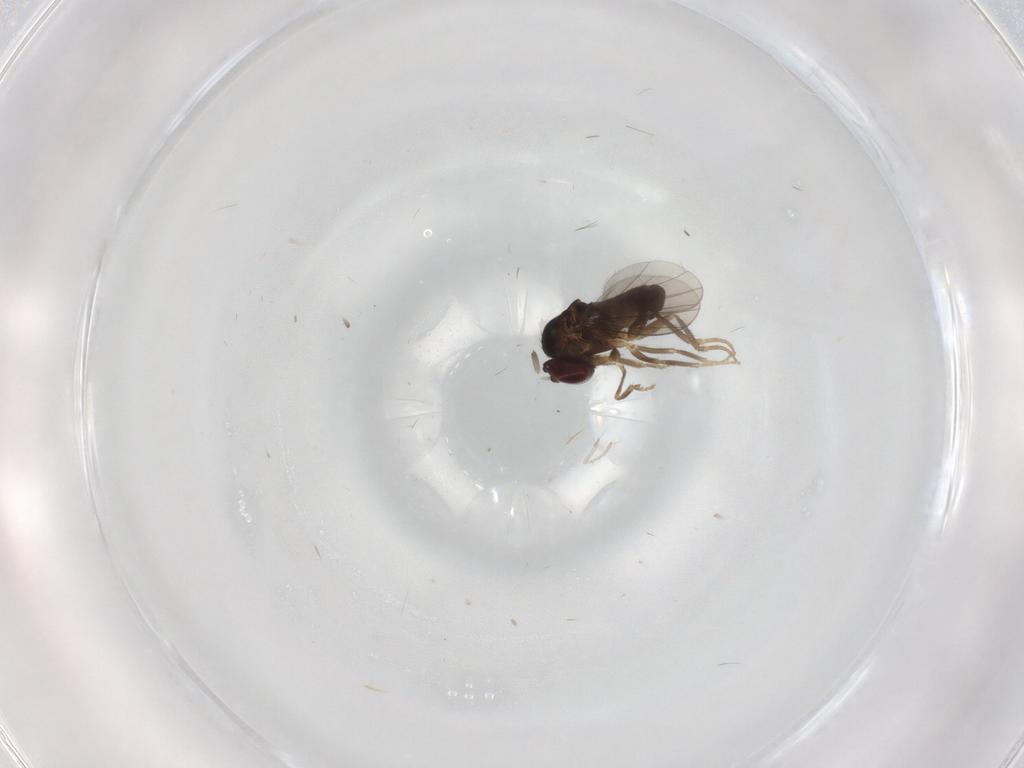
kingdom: Animalia
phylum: Arthropoda
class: Insecta
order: Diptera
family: Dolichopodidae
